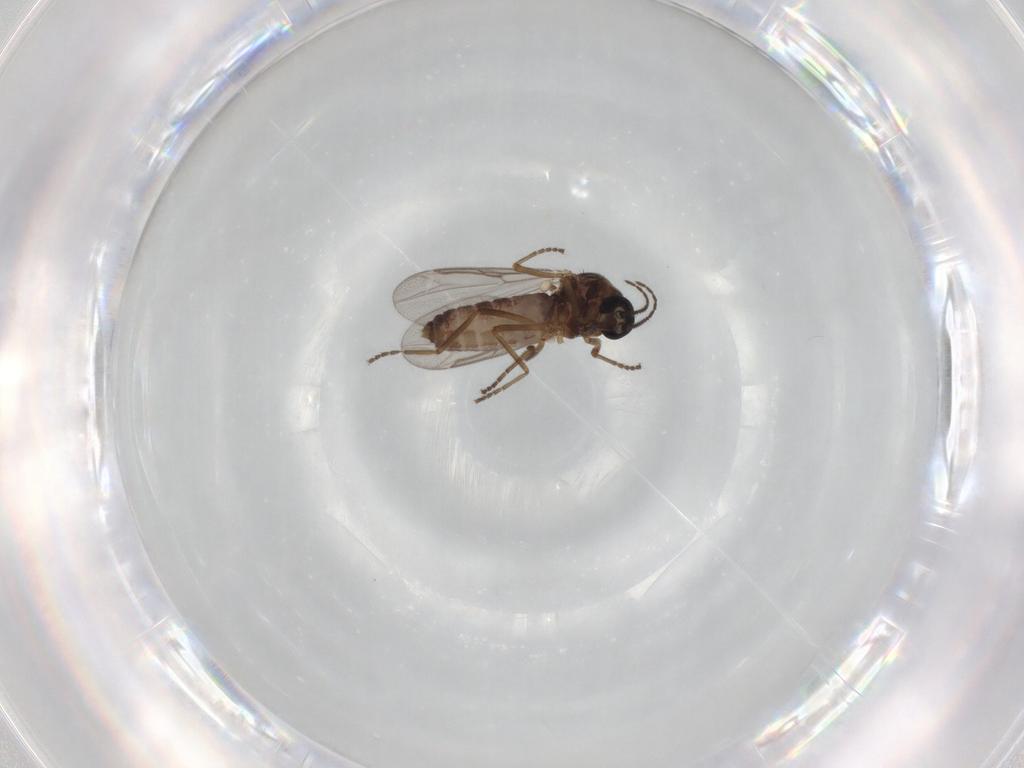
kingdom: Animalia
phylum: Arthropoda
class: Insecta
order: Diptera
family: Ceratopogonidae
